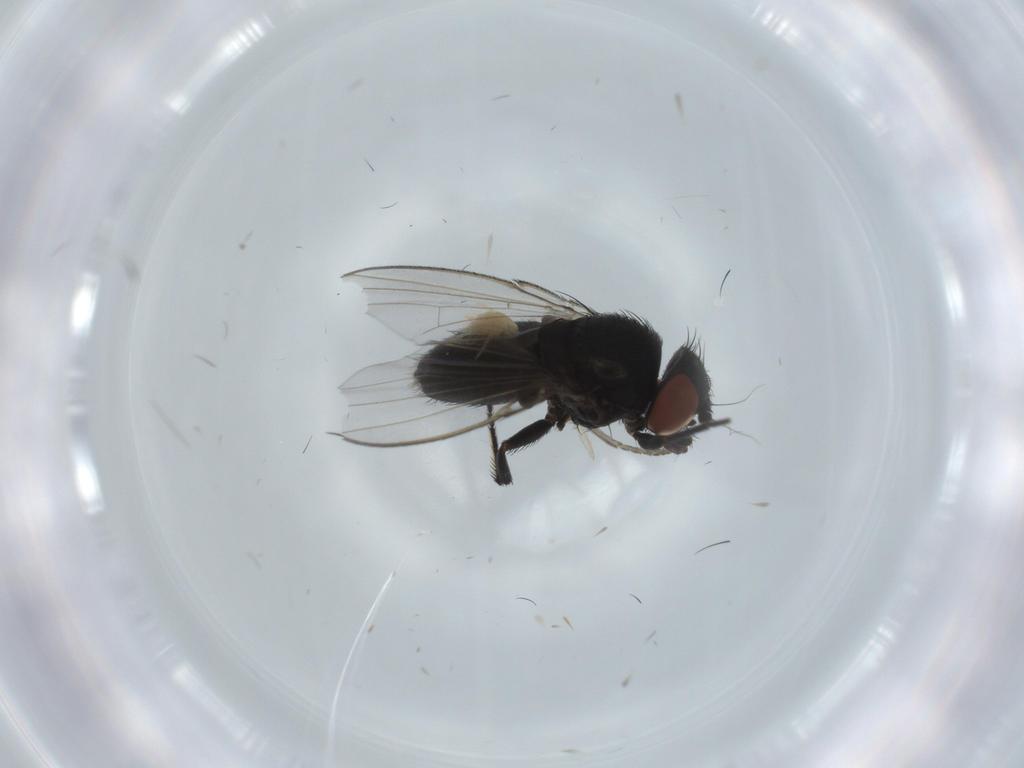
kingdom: Animalia
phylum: Arthropoda
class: Insecta
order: Diptera
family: Milichiidae
